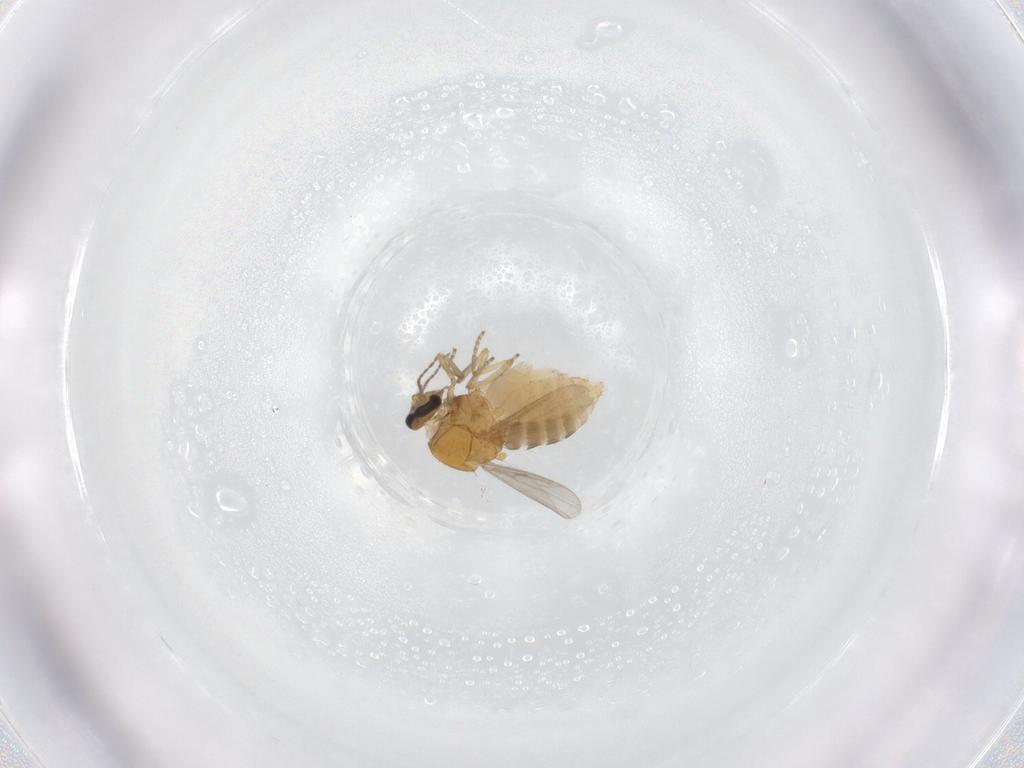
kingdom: Animalia
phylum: Arthropoda
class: Insecta
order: Diptera
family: Ceratopogonidae
